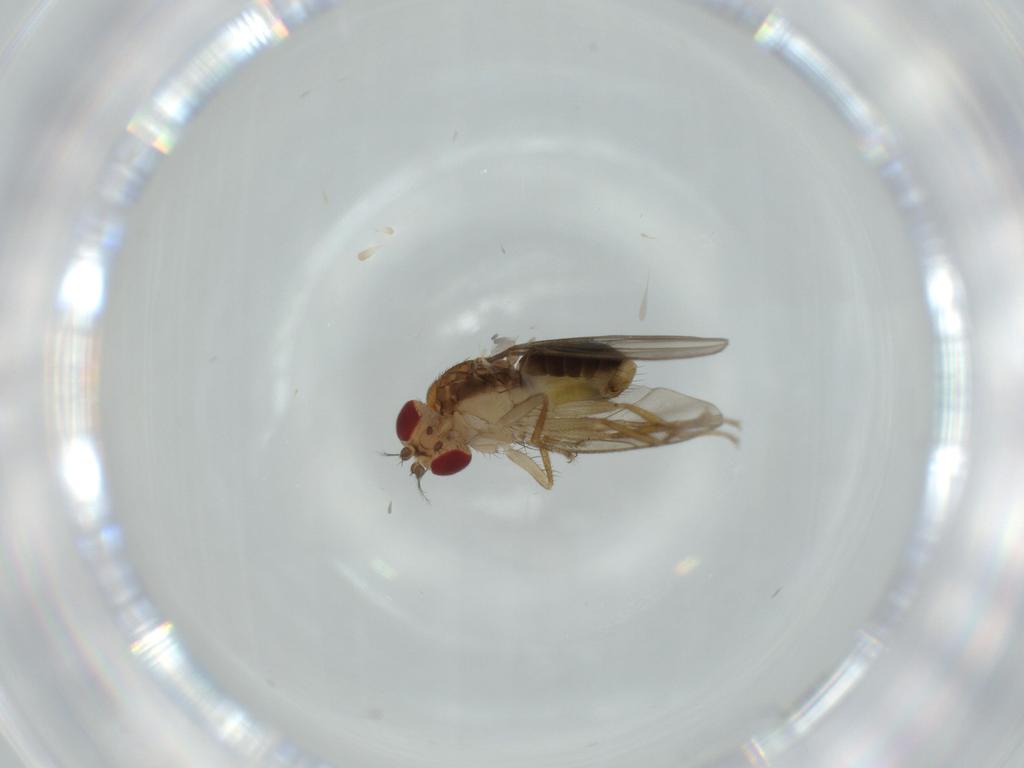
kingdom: Animalia
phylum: Arthropoda
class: Insecta
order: Diptera
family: Drosophilidae
